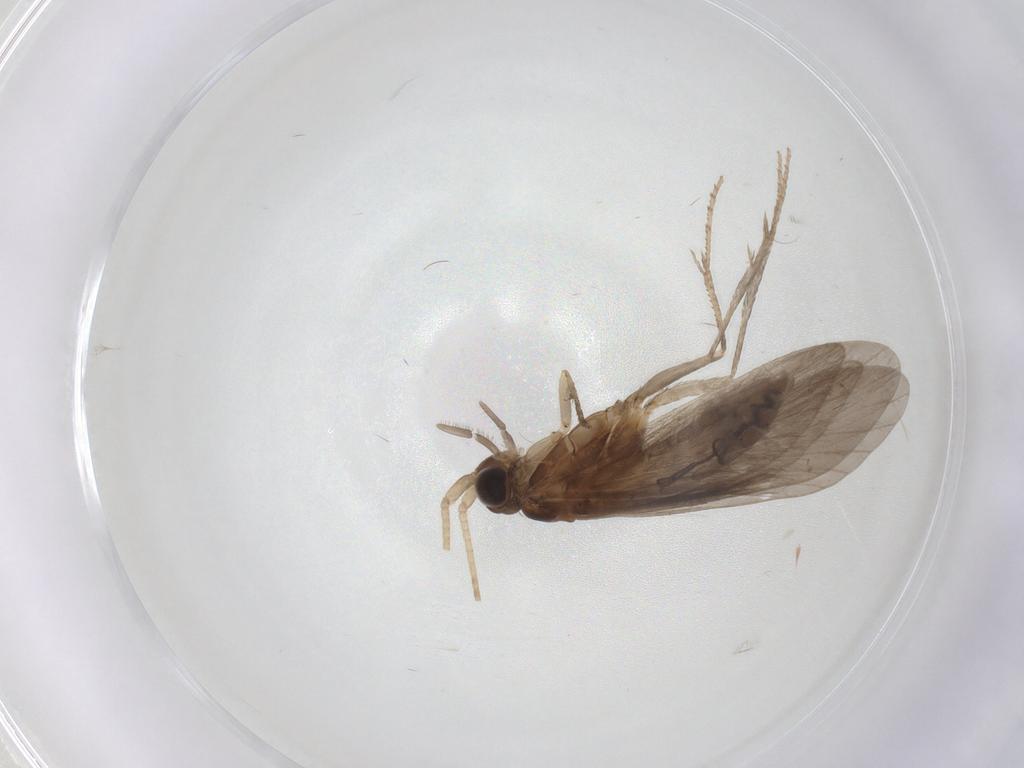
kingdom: Animalia
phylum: Arthropoda
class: Insecta
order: Trichoptera
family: Helicopsychidae
